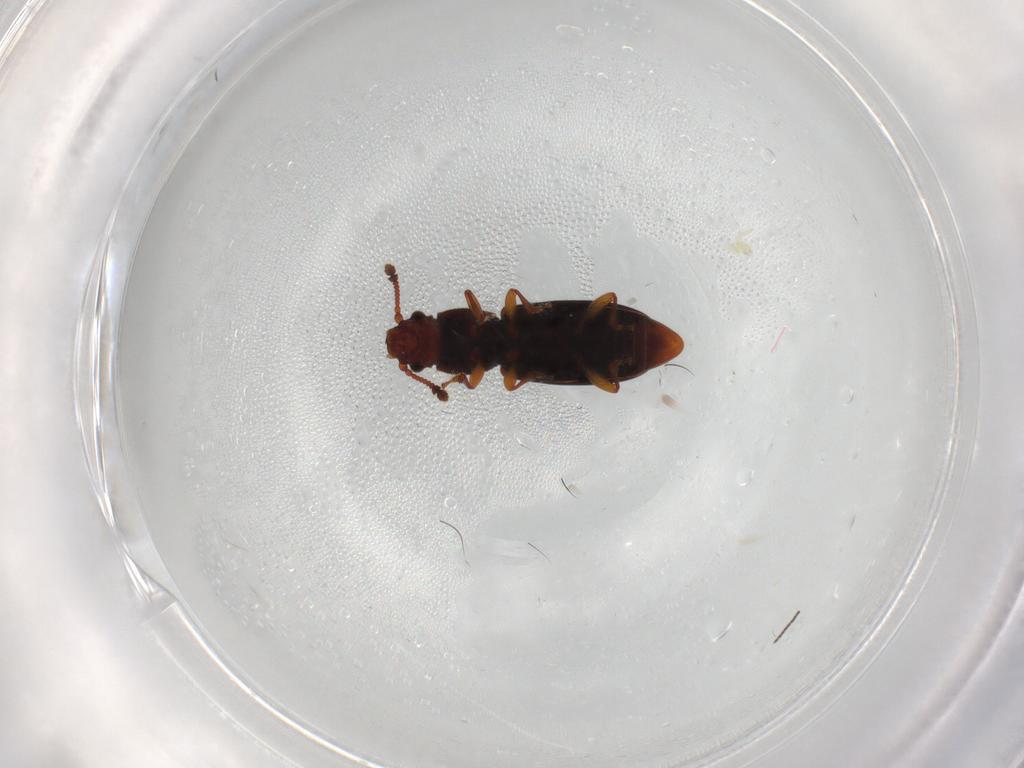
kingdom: Animalia
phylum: Arthropoda
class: Insecta
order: Coleoptera
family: Monotomidae
